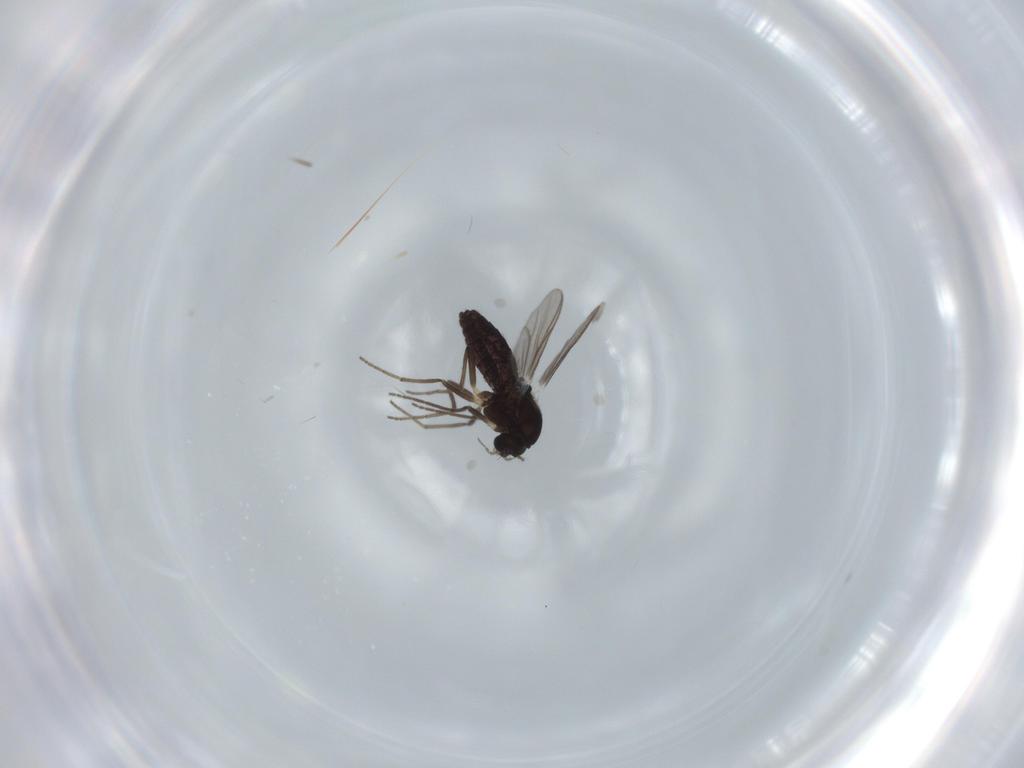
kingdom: Animalia
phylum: Arthropoda
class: Insecta
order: Diptera
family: Chironomidae
